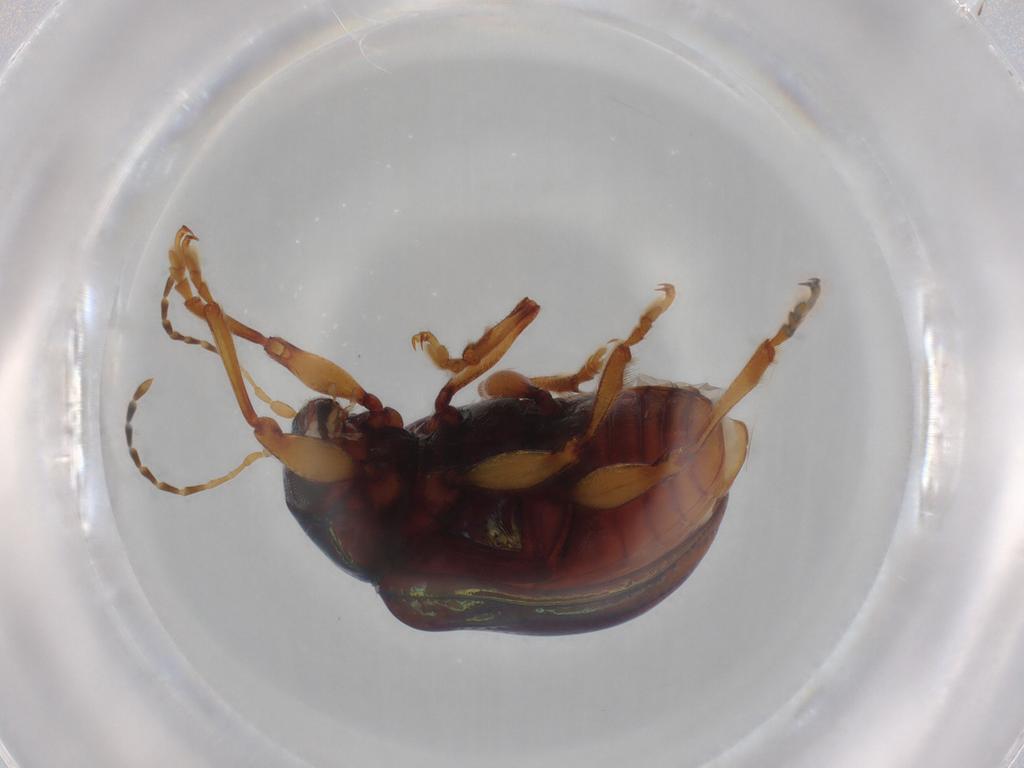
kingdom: Animalia
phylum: Arthropoda
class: Insecta
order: Coleoptera
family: Chrysomelidae
